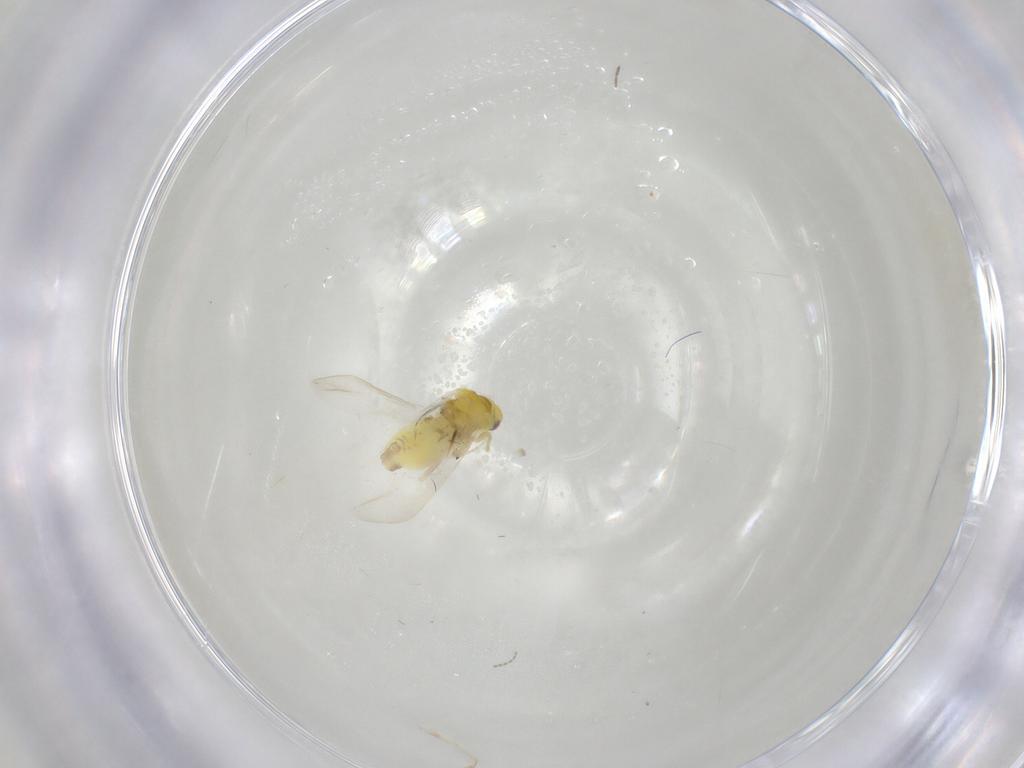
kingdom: Animalia
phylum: Arthropoda
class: Insecta
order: Hemiptera
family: Aleyrodidae
